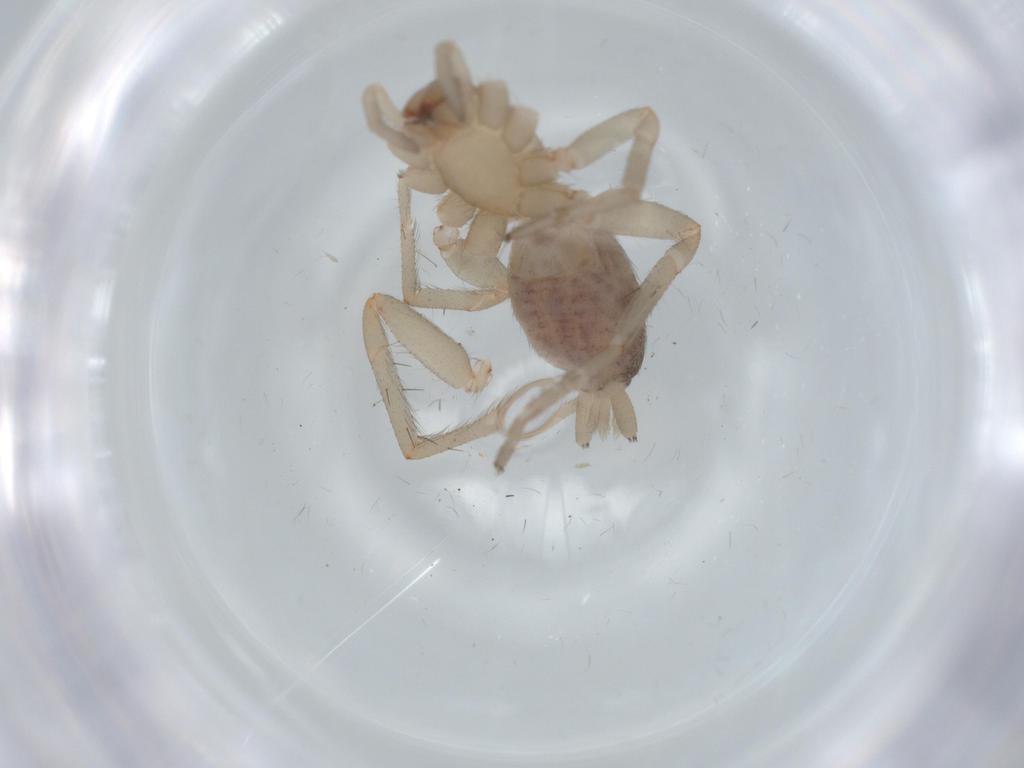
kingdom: Animalia
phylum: Arthropoda
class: Arachnida
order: Araneae
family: Gnaphosidae
